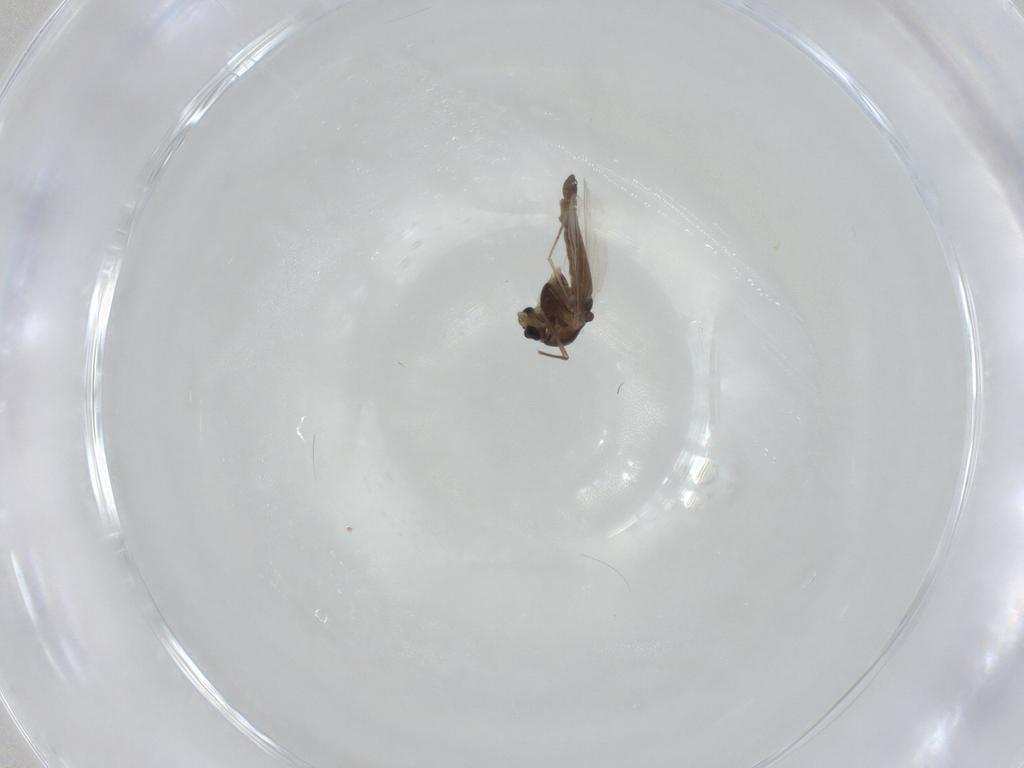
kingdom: Animalia
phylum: Arthropoda
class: Insecta
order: Diptera
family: Chironomidae
